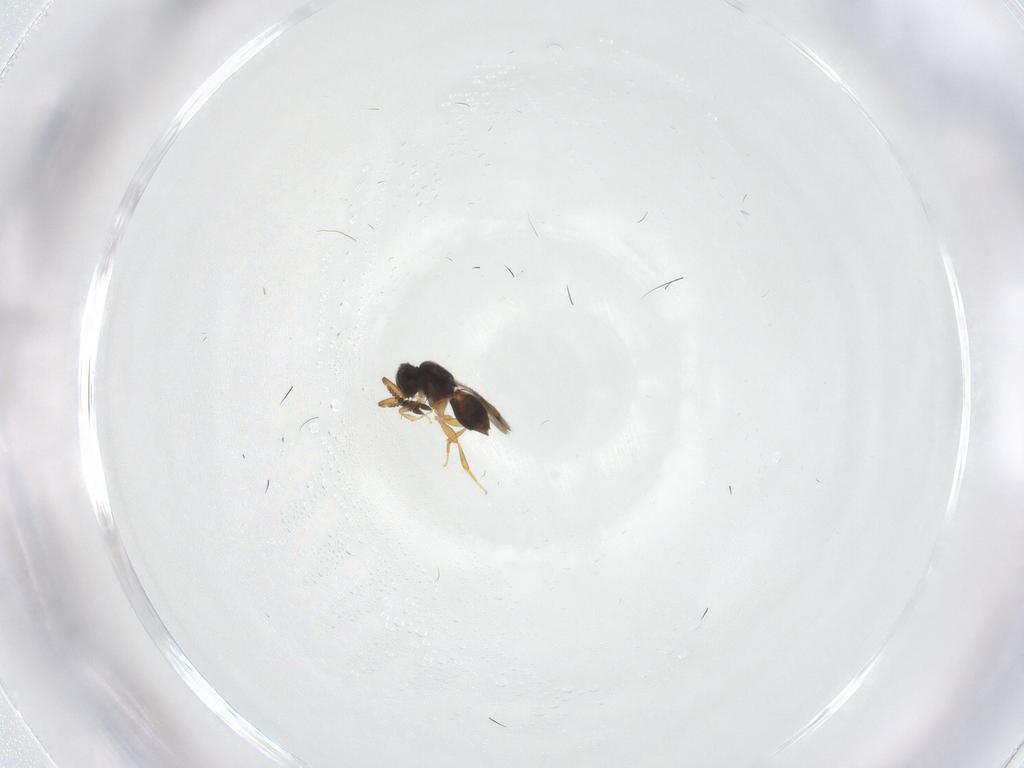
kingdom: Animalia
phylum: Arthropoda
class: Insecta
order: Hymenoptera
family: Ceraphronidae
